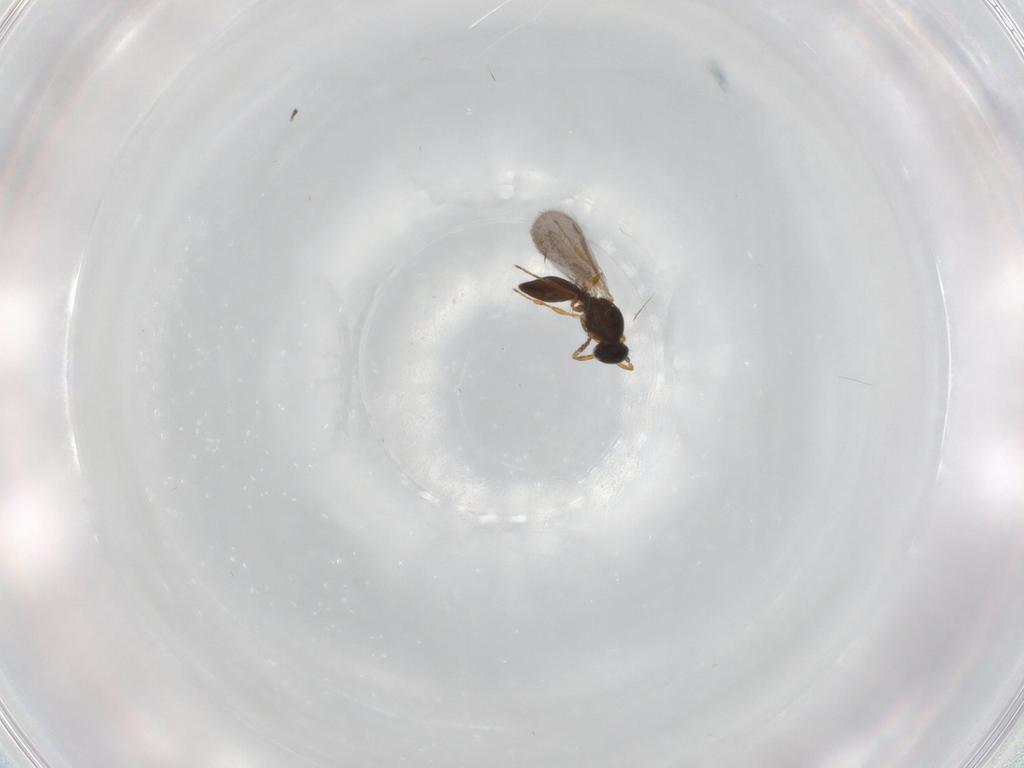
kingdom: Animalia
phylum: Arthropoda
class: Insecta
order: Hymenoptera
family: Platygastridae
